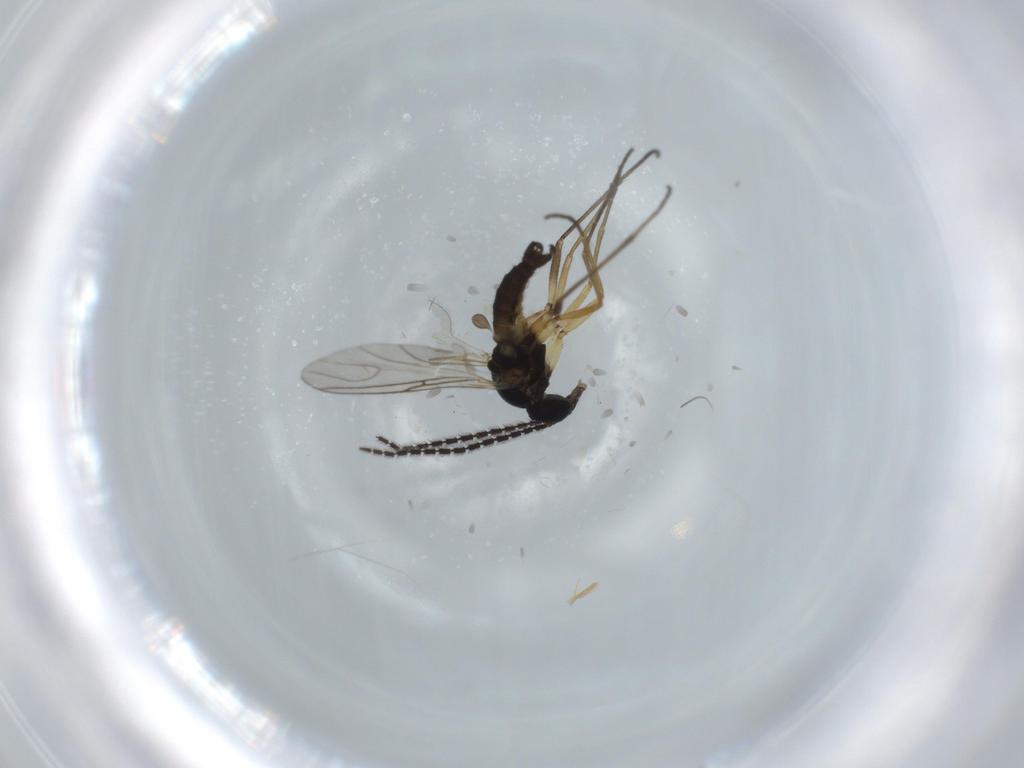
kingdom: Animalia
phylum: Arthropoda
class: Insecta
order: Diptera
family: Sciaridae
